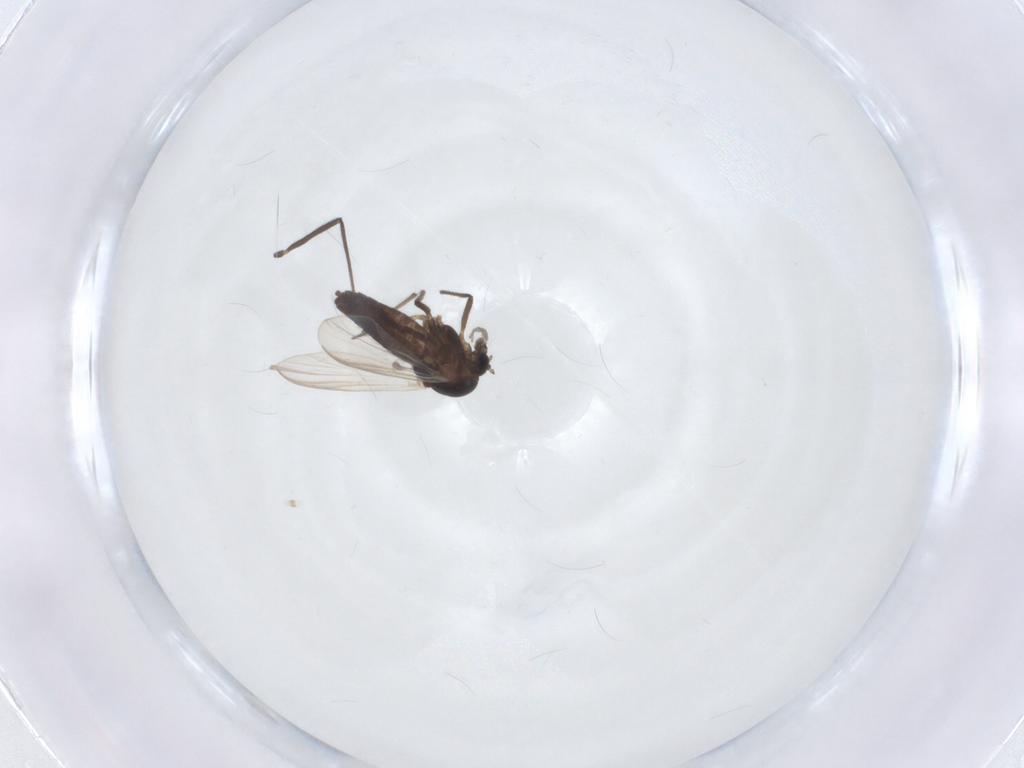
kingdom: Animalia
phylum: Arthropoda
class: Insecta
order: Diptera
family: Chironomidae
